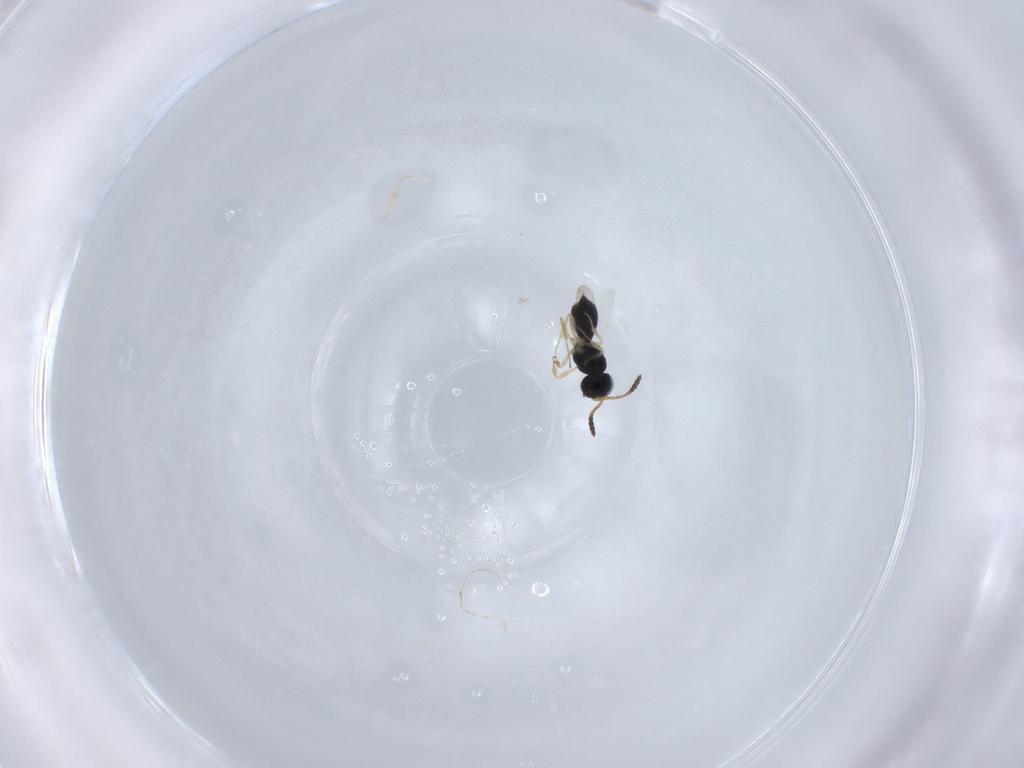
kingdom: Animalia
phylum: Arthropoda
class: Insecta
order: Hymenoptera
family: Scelionidae
